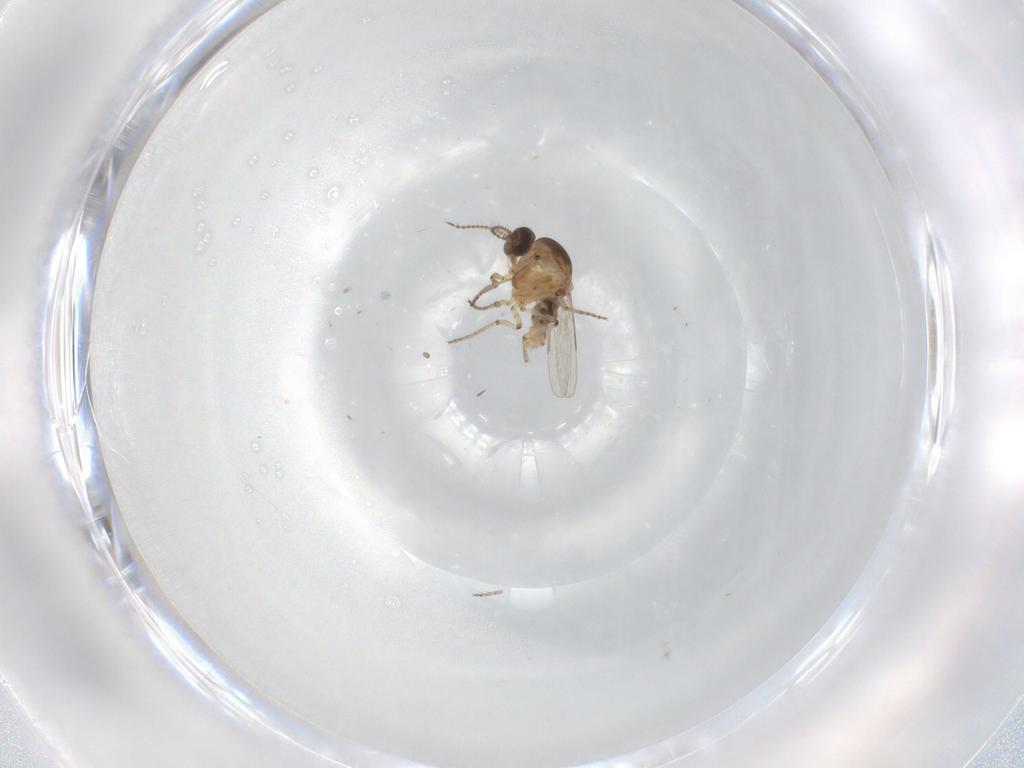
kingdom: Animalia
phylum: Arthropoda
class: Insecta
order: Diptera
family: Ceratopogonidae
